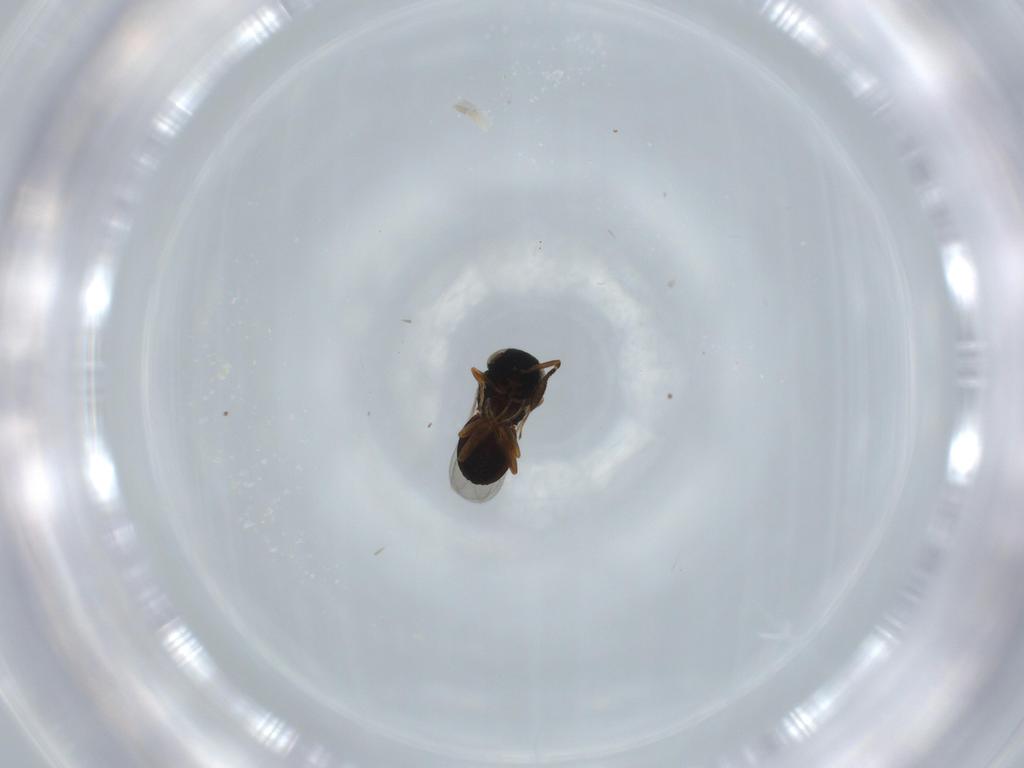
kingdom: Animalia
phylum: Arthropoda
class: Insecta
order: Coleoptera
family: Curculionidae
